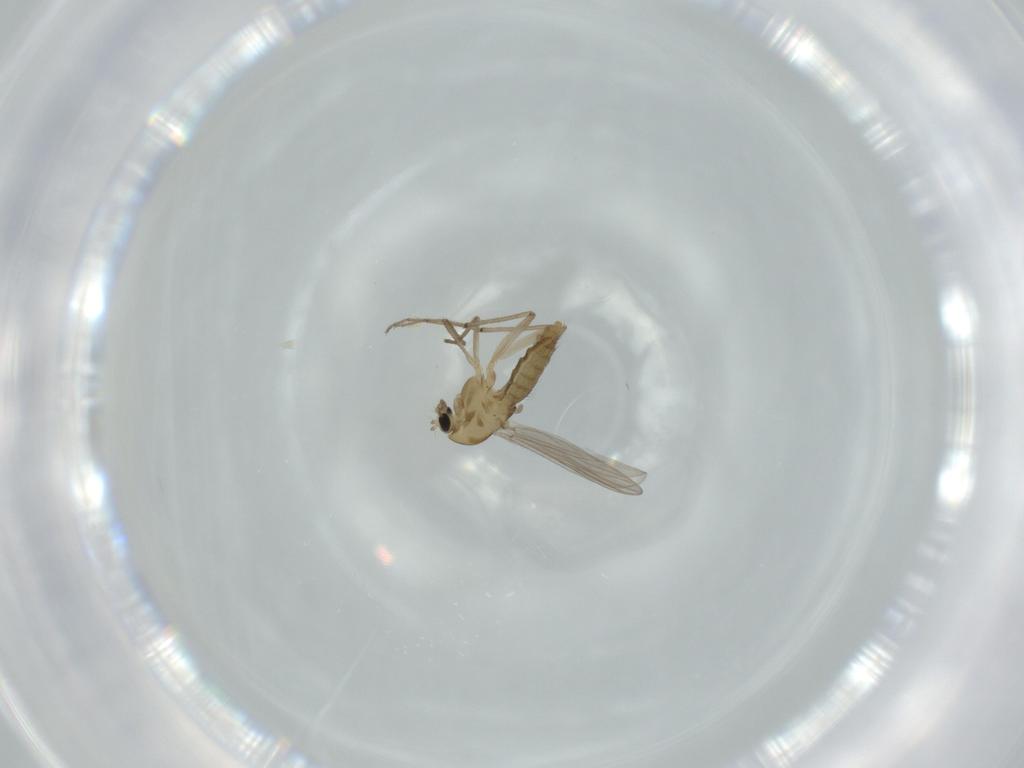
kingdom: Animalia
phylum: Arthropoda
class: Insecta
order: Diptera
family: Chironomidae
